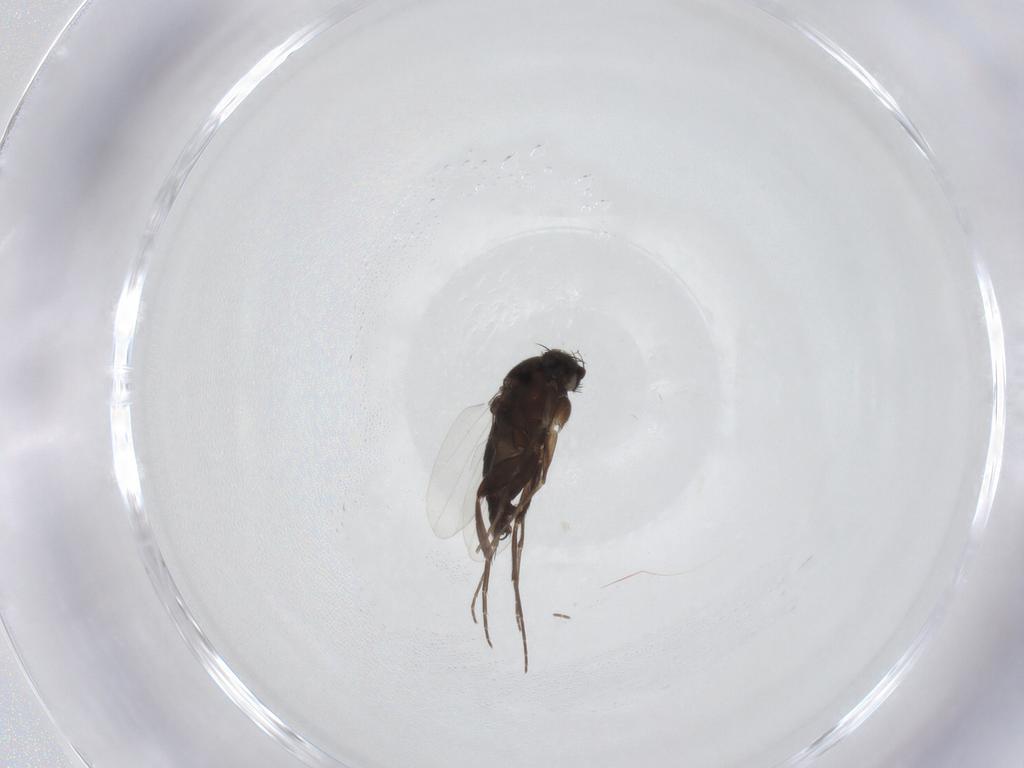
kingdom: Animalia
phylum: Arthropoda
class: Insecta
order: Diptera
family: Phoridae
